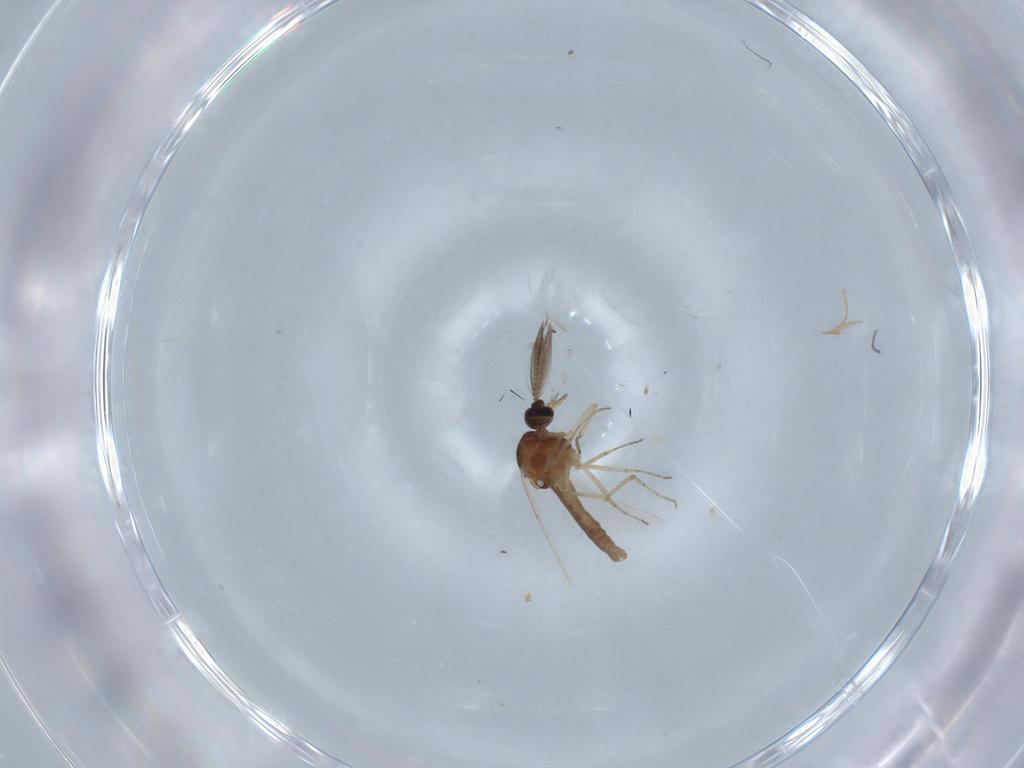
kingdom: Animalia
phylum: Arthropoda
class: Insecta
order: Diptera
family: Ceratopogonidae
